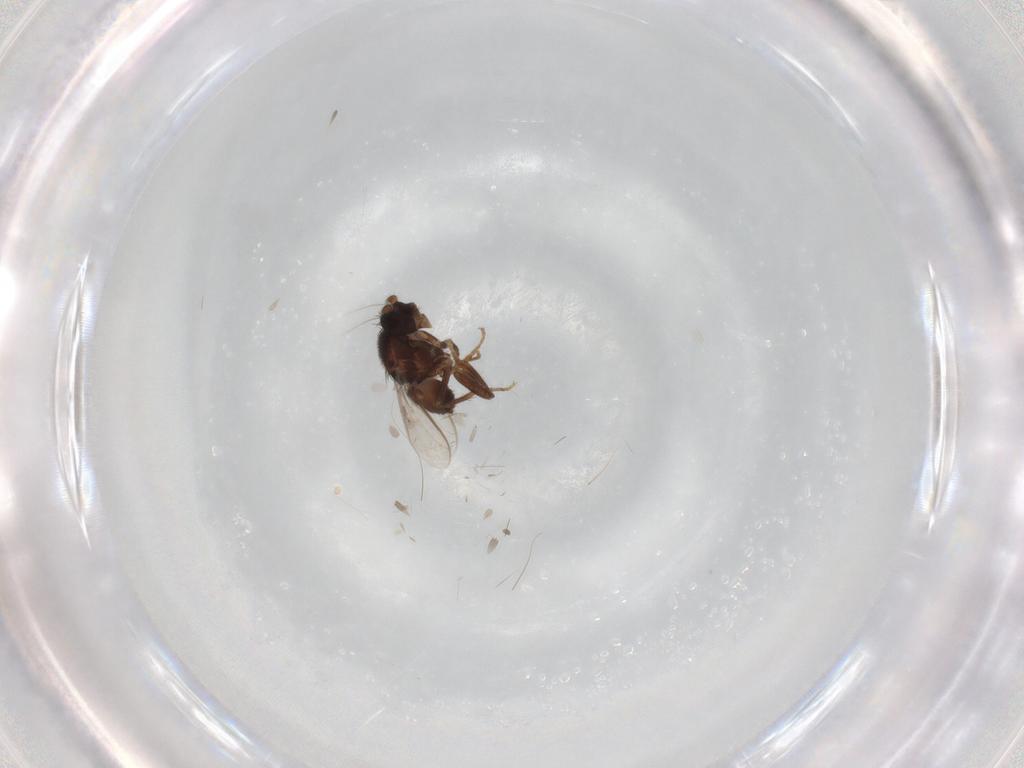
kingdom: Animalia
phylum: Arthropoda
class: Insecta
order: Diptera
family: Sphaeroceridae
